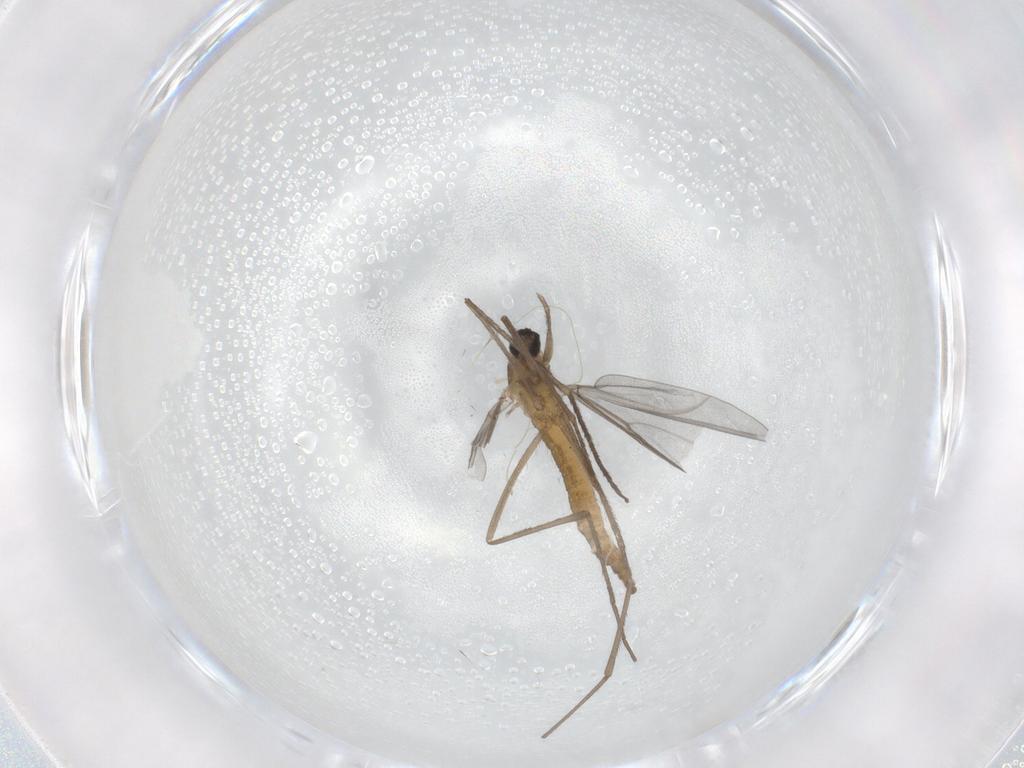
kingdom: Animalia
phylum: Arthropoda
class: Insecta
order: Diptera
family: Cecidomyiidae
